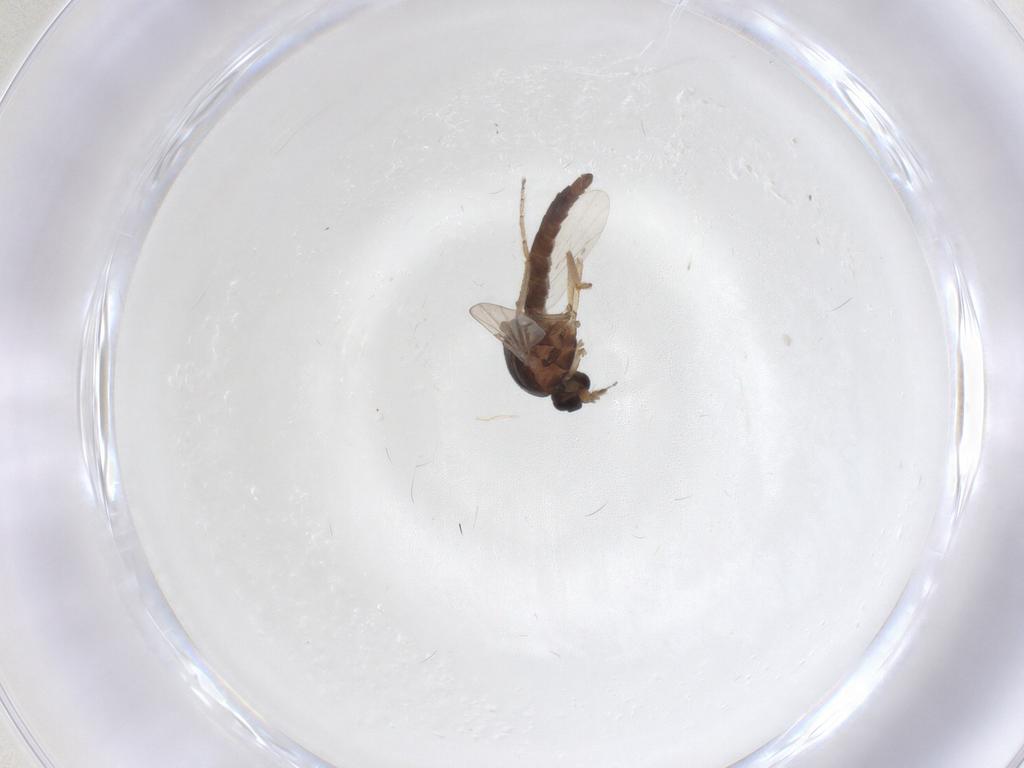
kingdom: Animalia
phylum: Arthropoda
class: Insecta
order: Diptera
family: Ceratopogonidae
